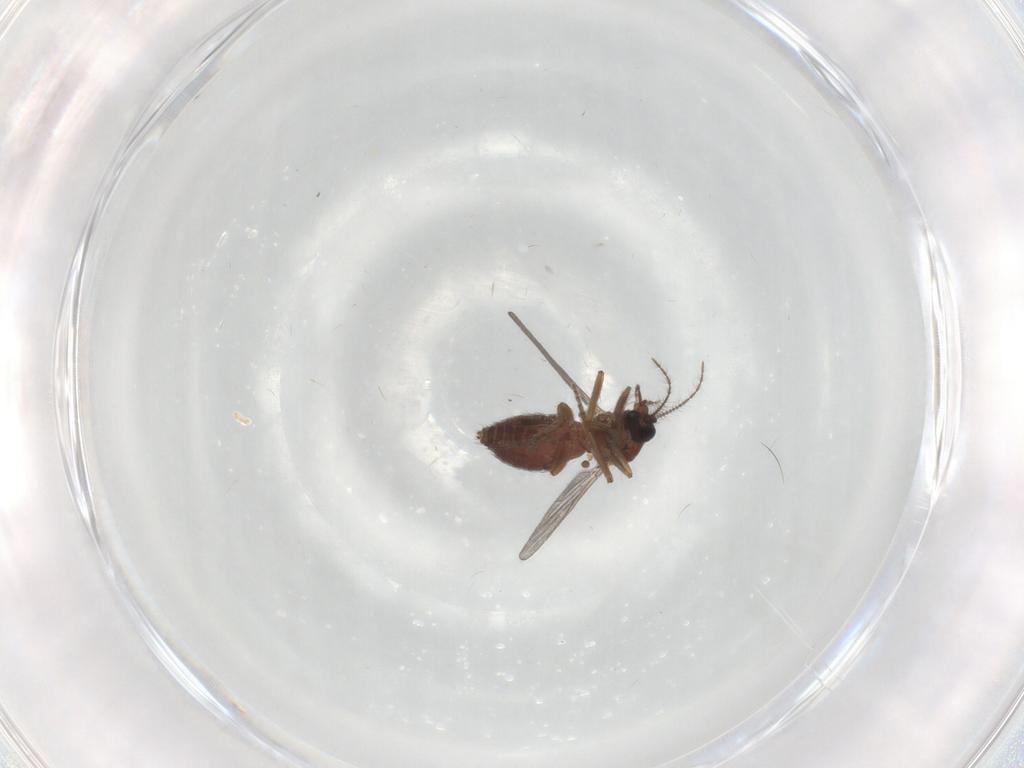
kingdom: Animalia
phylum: Arthropoda
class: Insecta
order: Diptera
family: Ceratopogonidae
